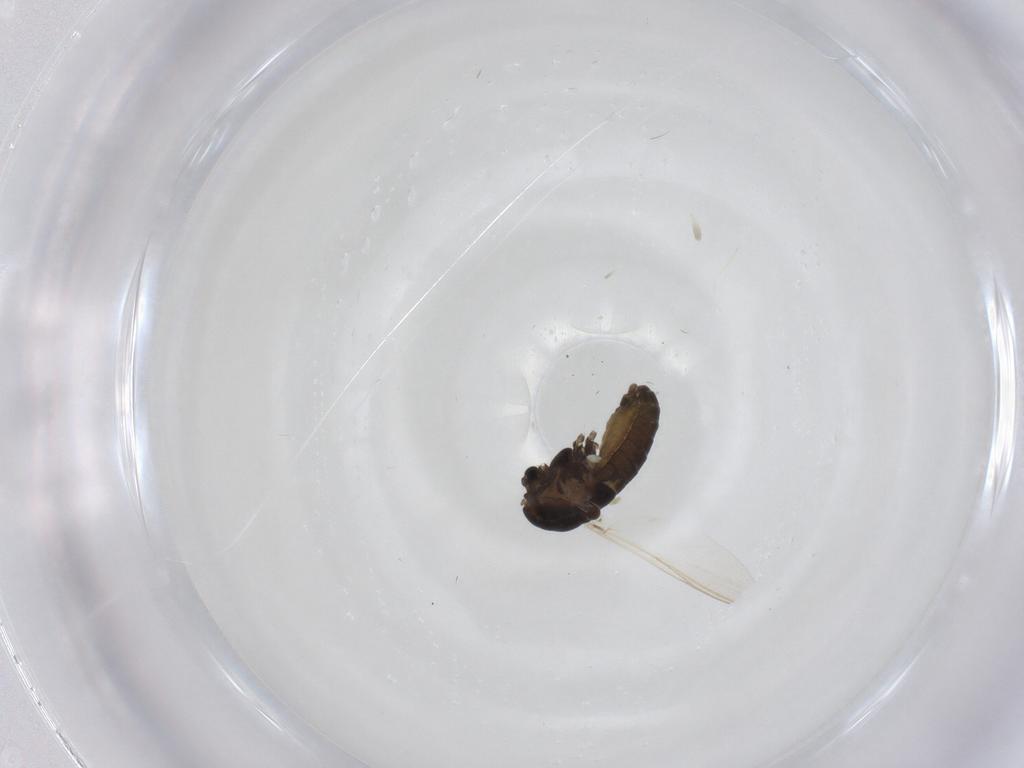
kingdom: Animalia
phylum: Arthropoda
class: Insecta
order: Diptera
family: Chironomidae
